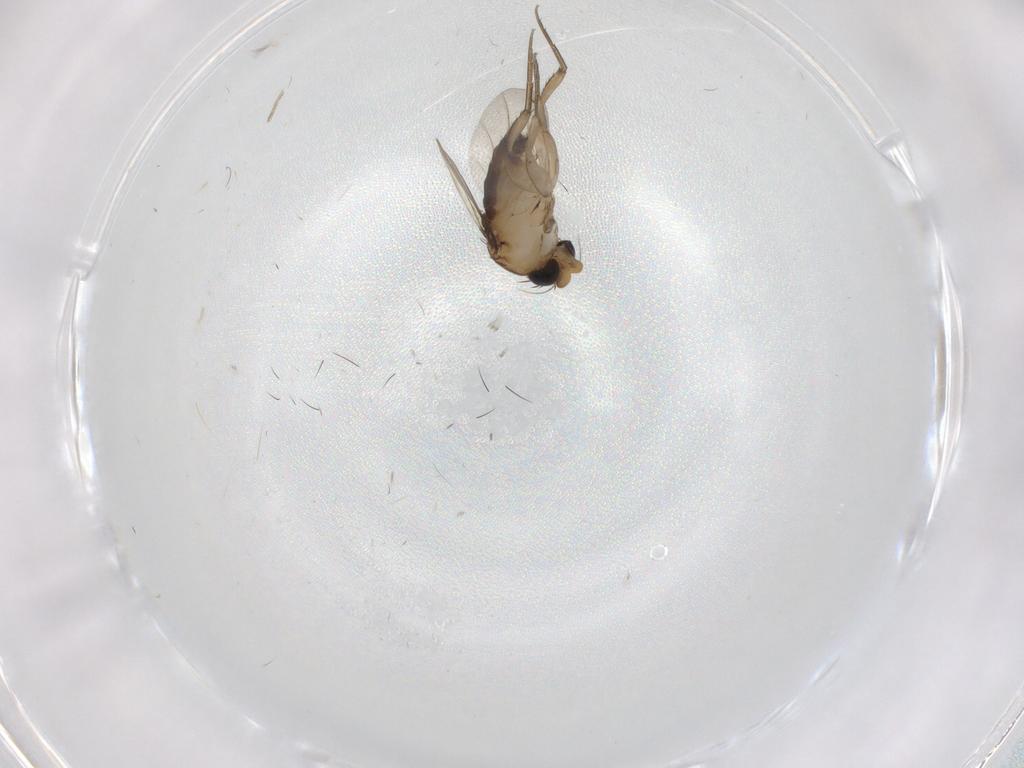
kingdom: Animalia
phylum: Arthropoda
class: Insecta
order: Diptera
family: Phoridae
